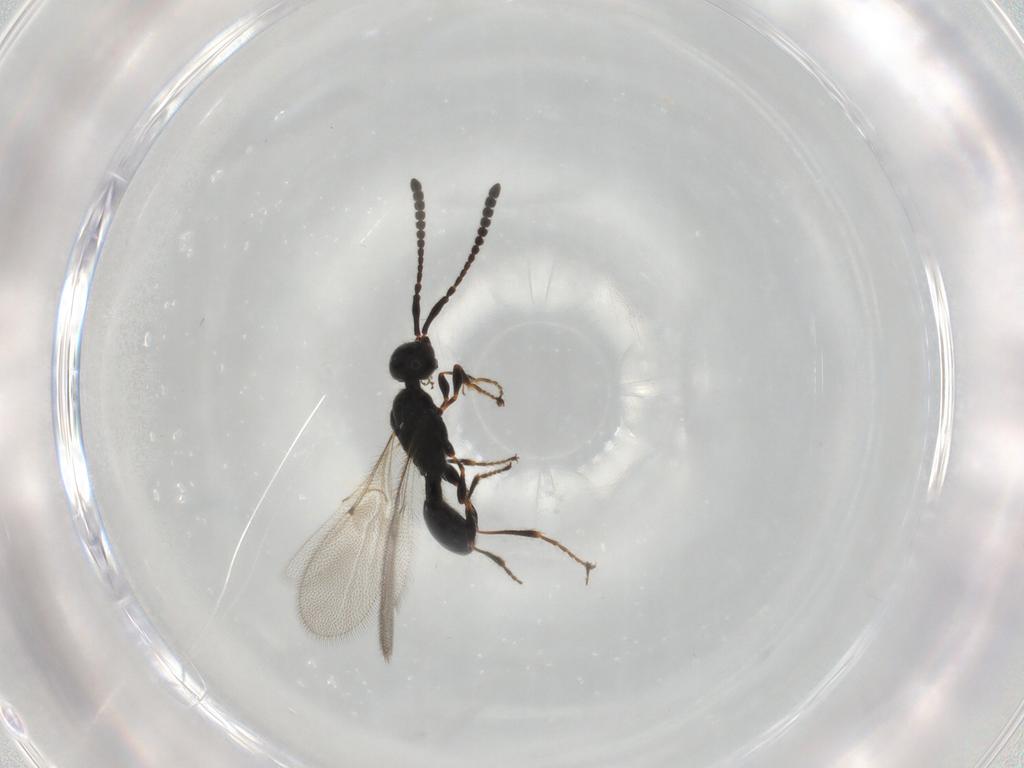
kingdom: Animalia
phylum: Arthropoda
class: Insecta
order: Hymenoptera
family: Diapriidae
